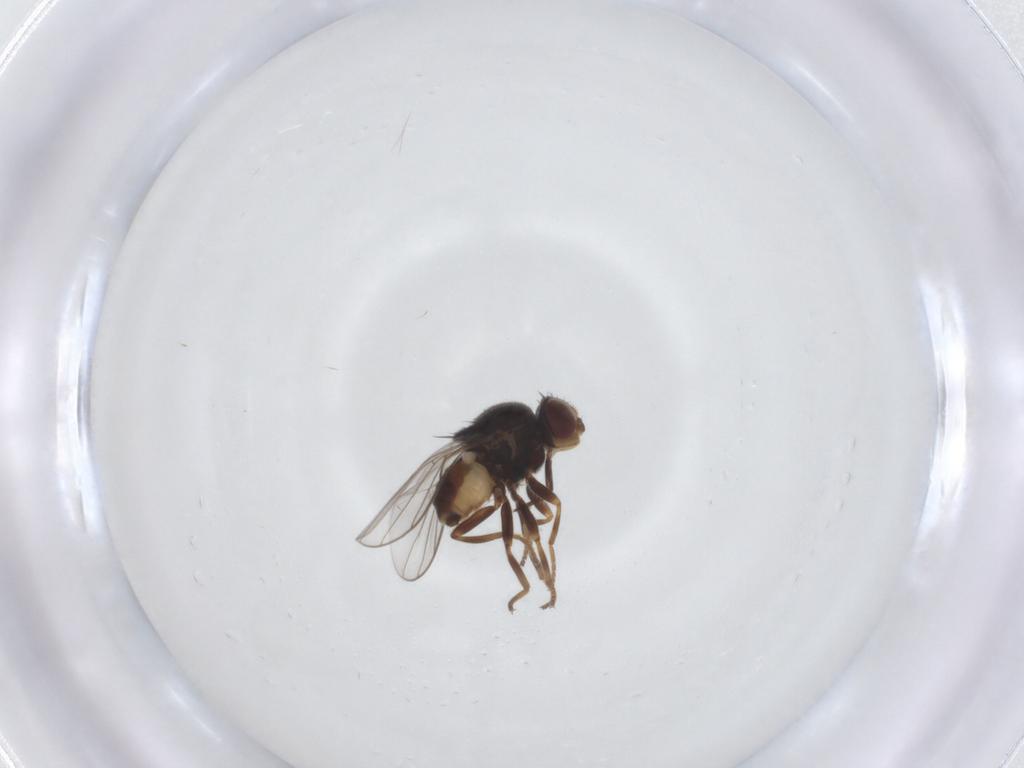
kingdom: Animalia
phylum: Arthropoda
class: Insecta
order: Diptera
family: Chloropidae
